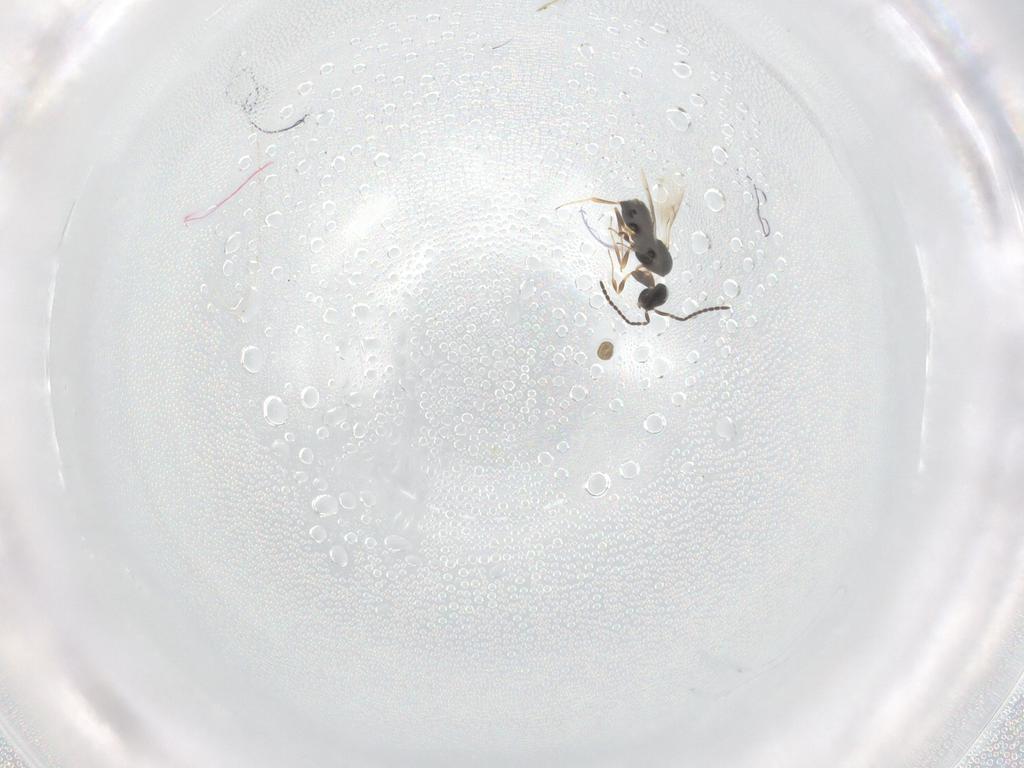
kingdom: Animalia
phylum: Arthropoda
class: Insecta
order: Hymenoptera
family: Scelionidae
